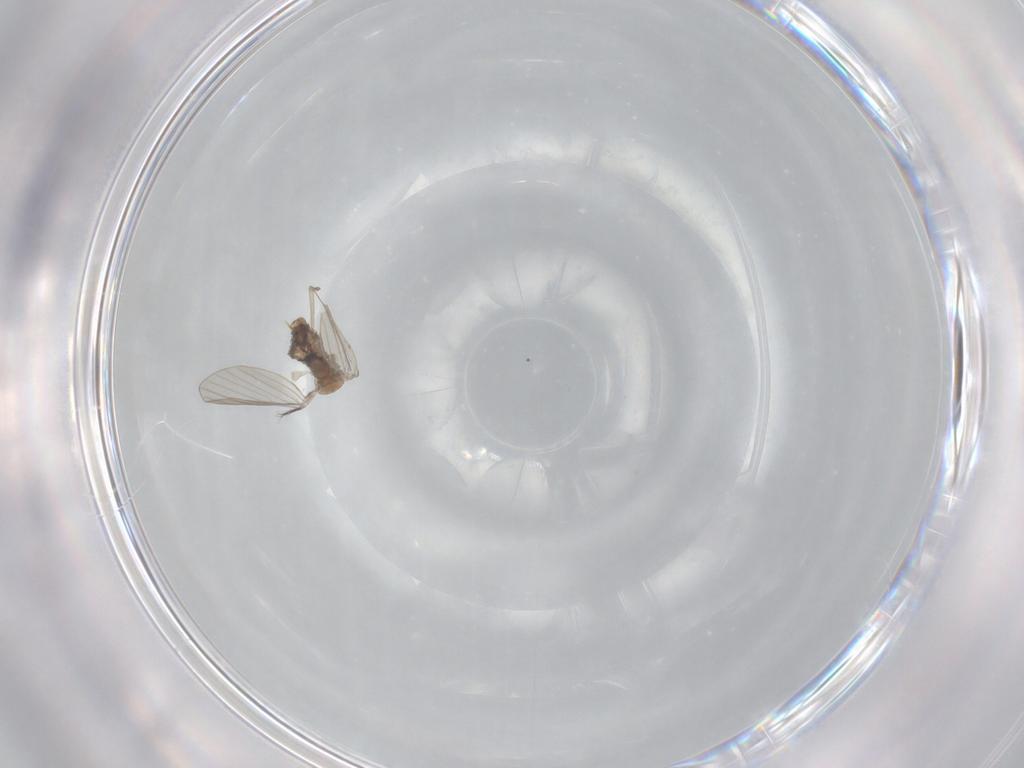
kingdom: Animalia
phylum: Arthropoda
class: Insecta
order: Diptera
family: Psychodidae
